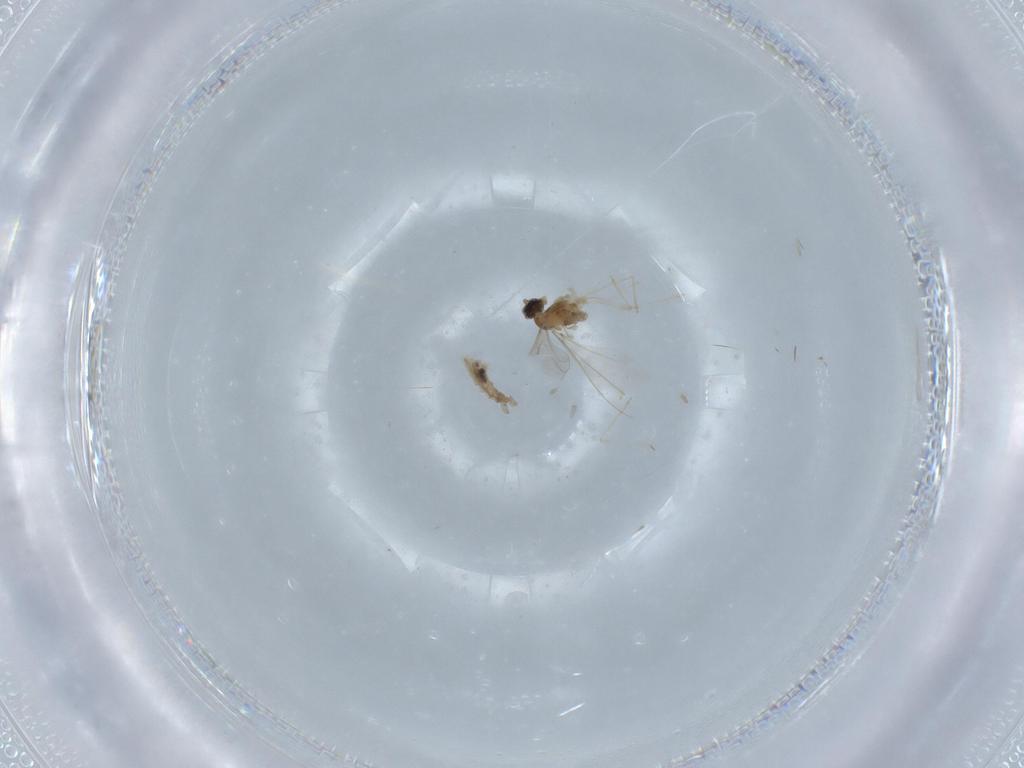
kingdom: Animalia
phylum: Arthropoda
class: Insecta
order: Diptera
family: Cecidomyiidae
